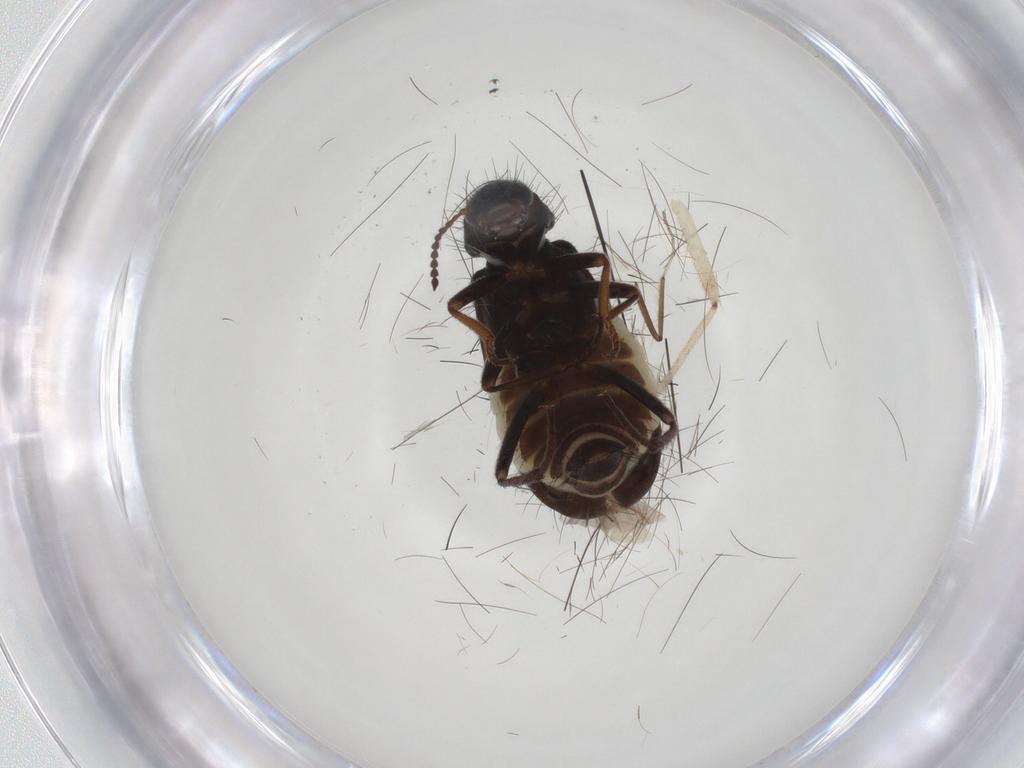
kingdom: Animalia
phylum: Arthropoda
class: Insecta
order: Coleoptera
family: Melyridae
